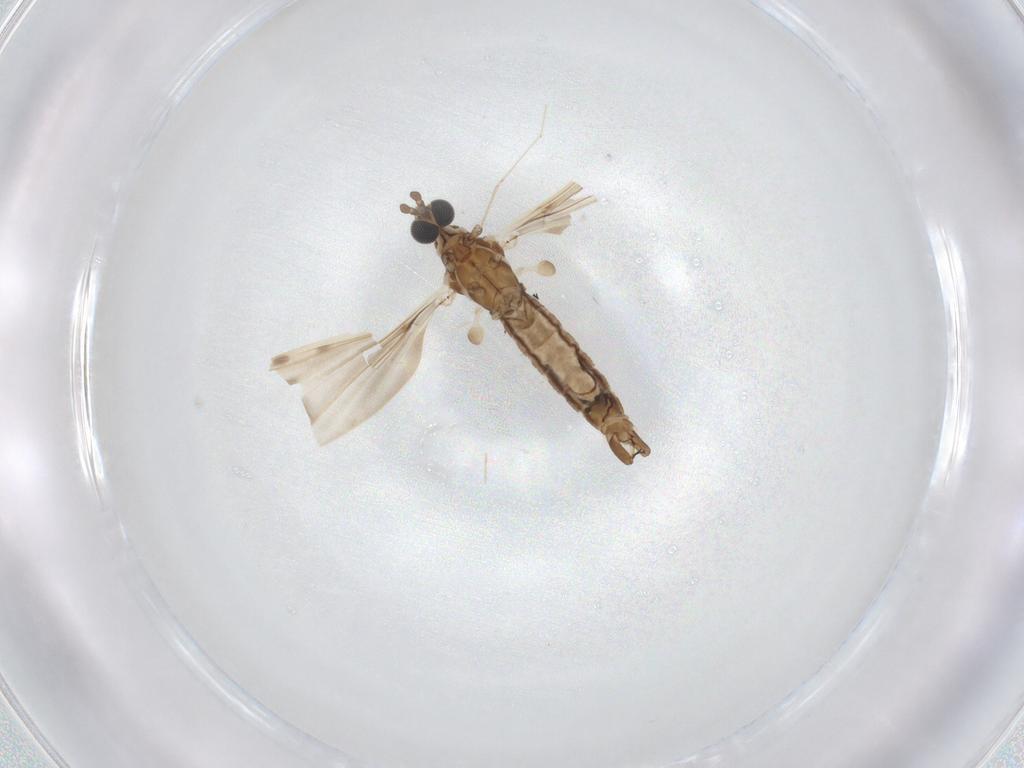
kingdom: Animalia
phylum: Arthropoda
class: Insecta
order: Diptera
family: Limoniidae
